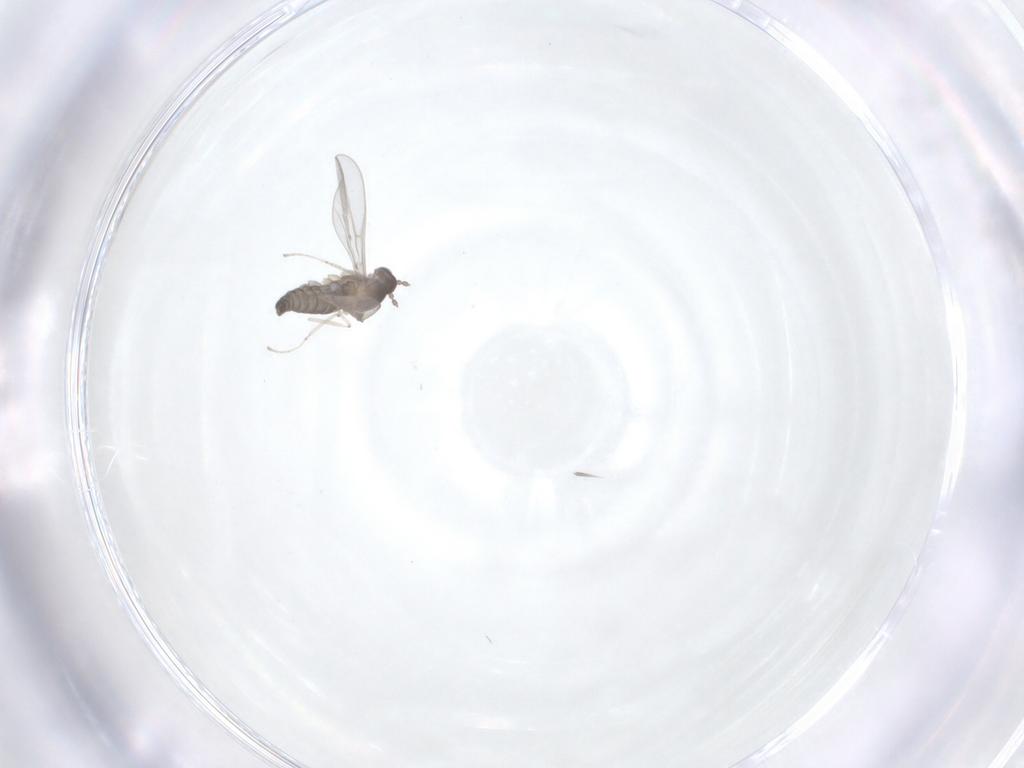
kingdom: Animalia
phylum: Arthropoda
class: Insecta
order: Diptera
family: Cecidomyiidae
